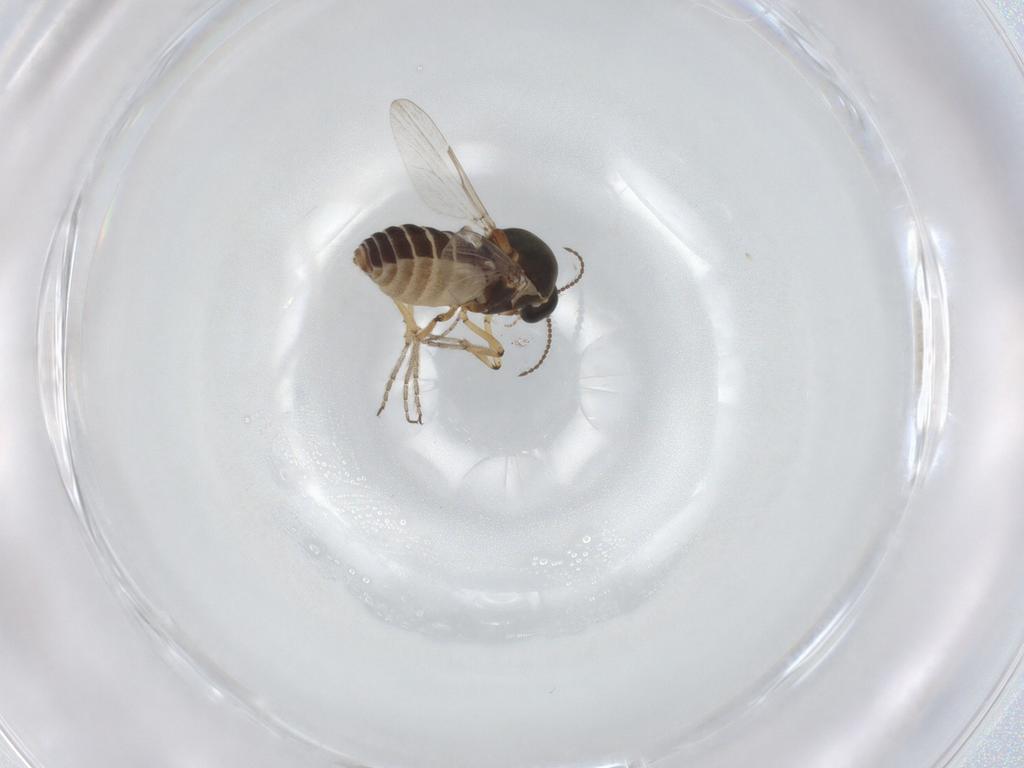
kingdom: Animalia
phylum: Arthropoda
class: Insecta
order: Diptera
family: Ceratopogonidae
